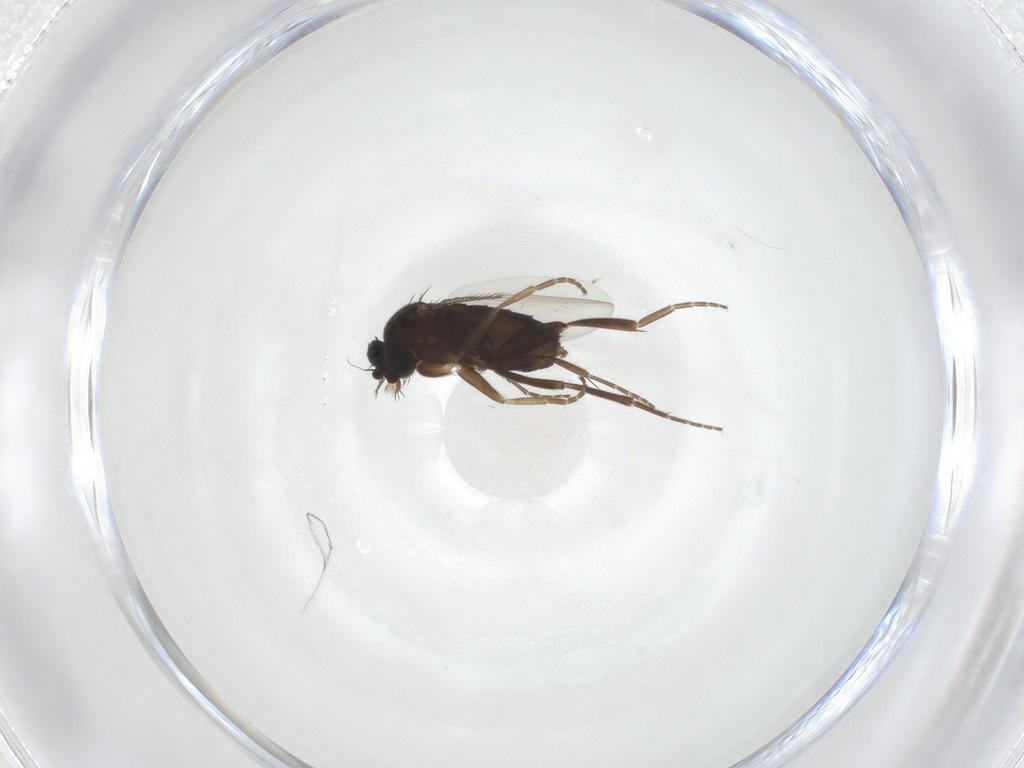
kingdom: Animalia
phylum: Arthropoda
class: Insecta
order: Diptera
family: Phoridae
